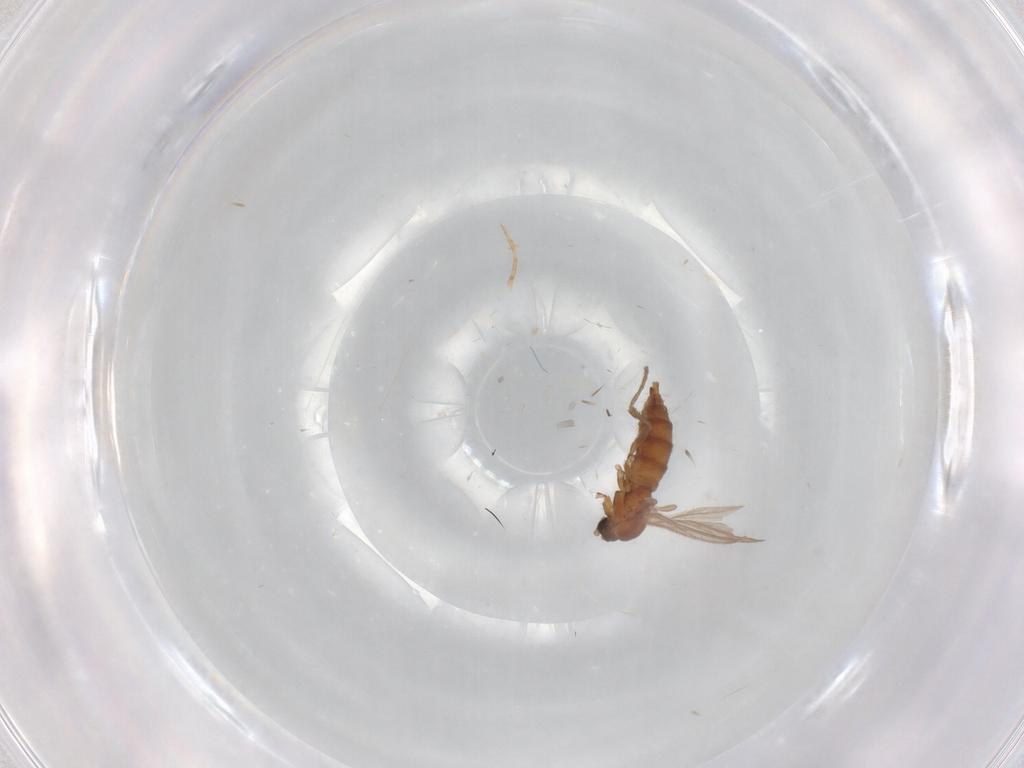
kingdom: Animalia
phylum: Arthropoda
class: Insecta
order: Diptera
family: Sciaridae
